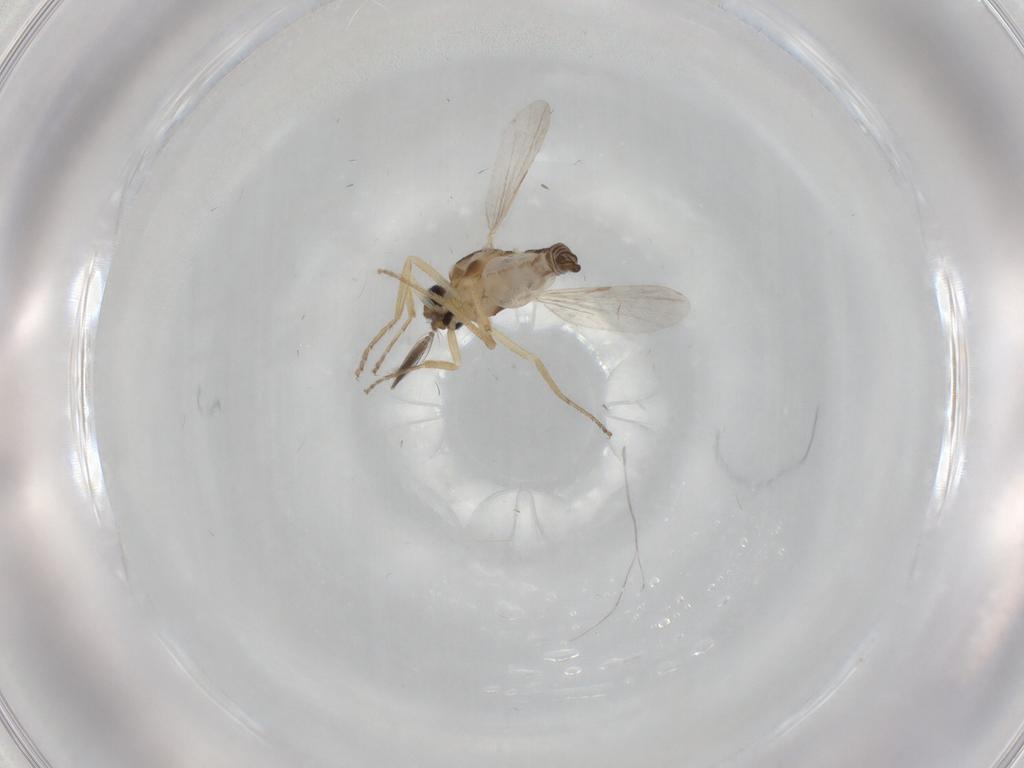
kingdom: Animalia
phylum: Arthropoda
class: Insecta
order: Diptera
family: Ceratopogonidae
